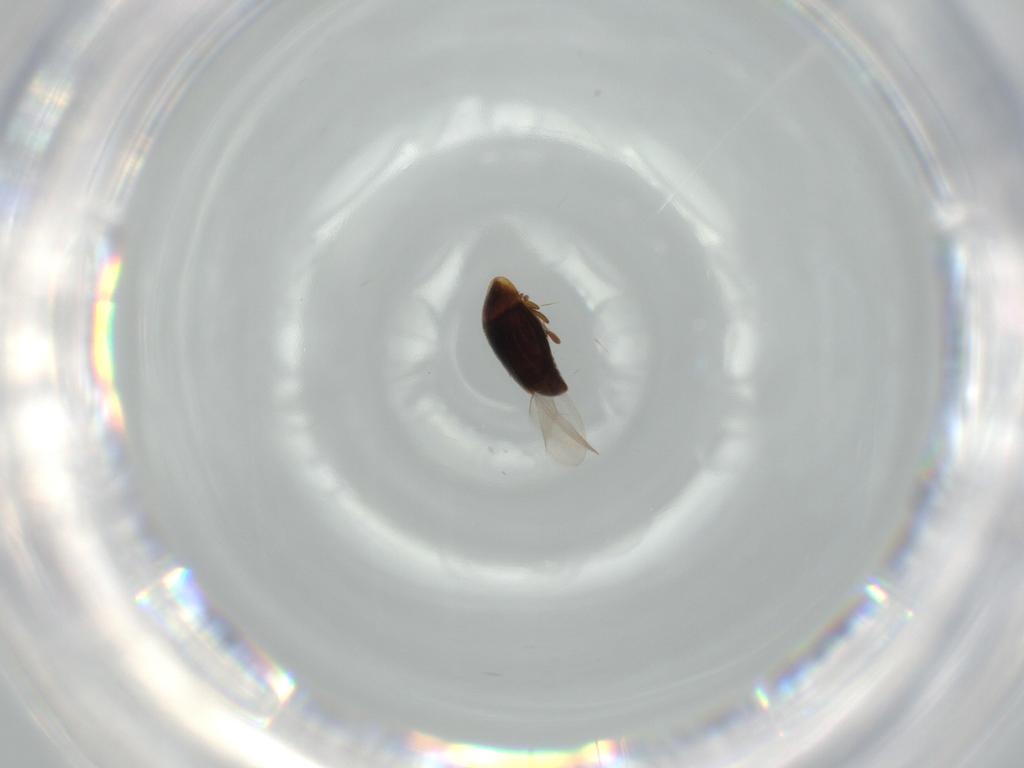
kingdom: Animalia
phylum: Arthropoda
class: Insecta
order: Coleoptera
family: Corylophidae
